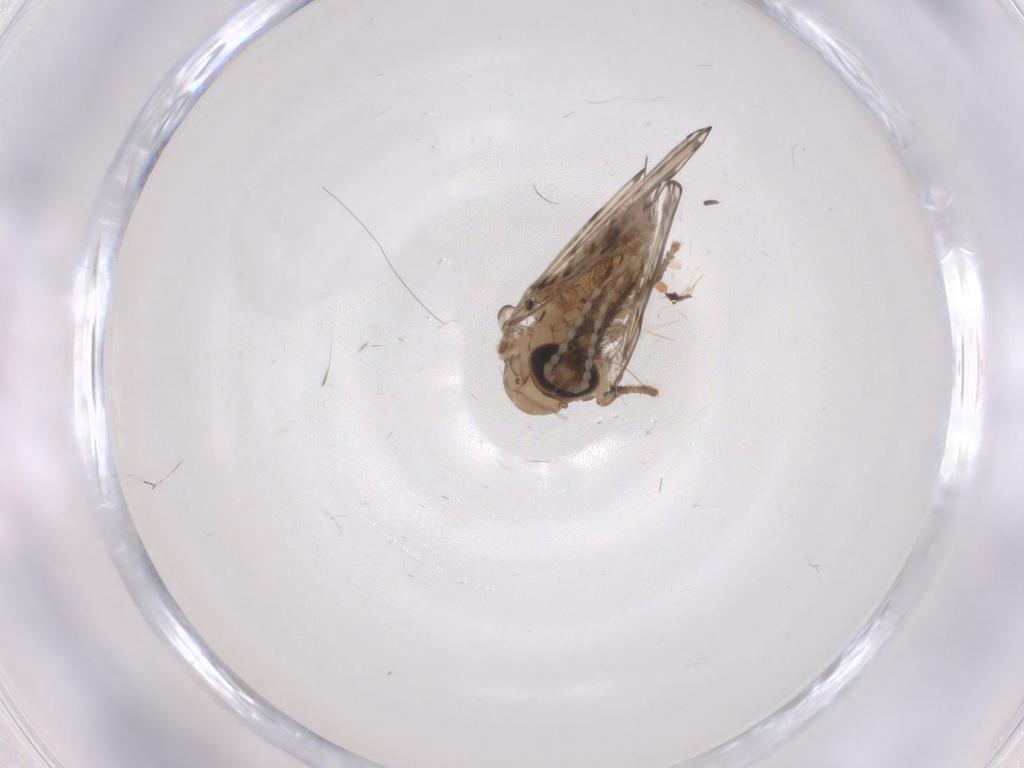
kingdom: Animalia
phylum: Arthropoda
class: Insecta
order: Diptera
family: Psychodidae
